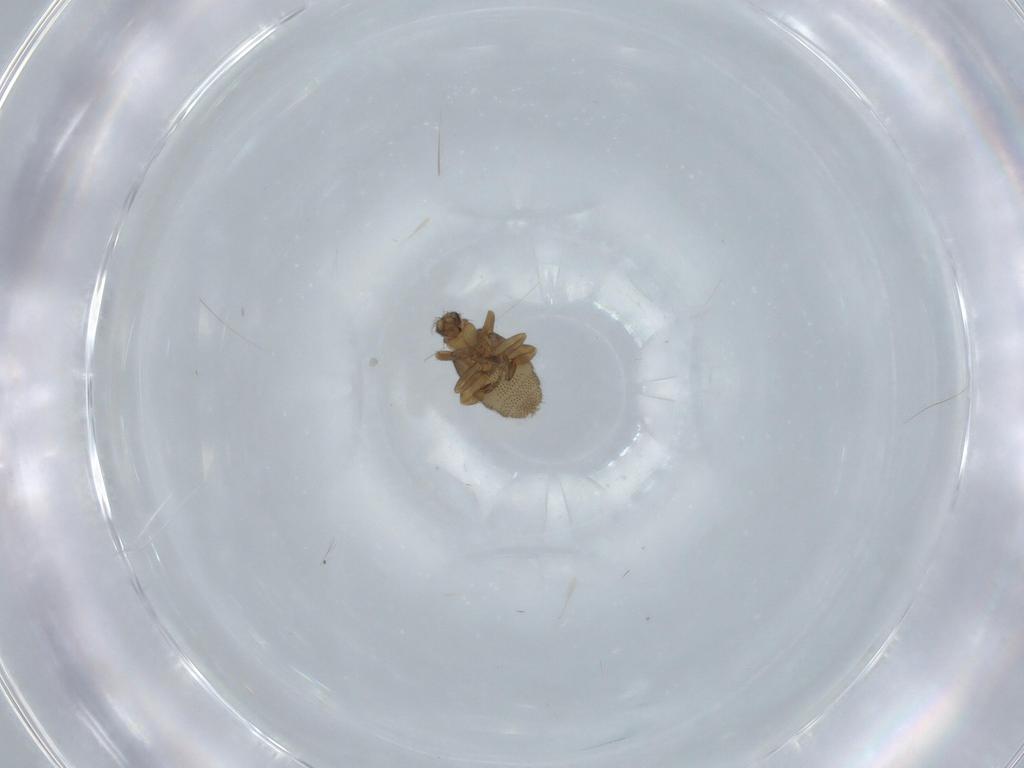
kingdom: Animalia
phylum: Arthropoda
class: Insecta
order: Diptera
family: Phoridae
